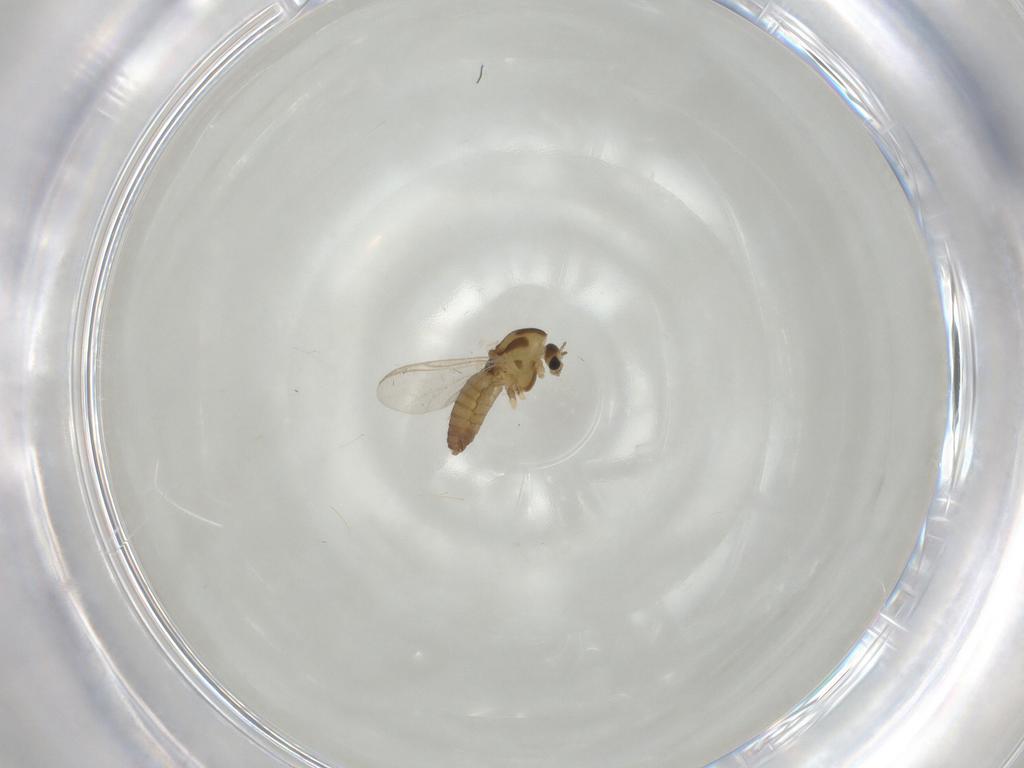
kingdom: Animalia
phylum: Arthropoda
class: Insecta
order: Diptera
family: Chironomidae
